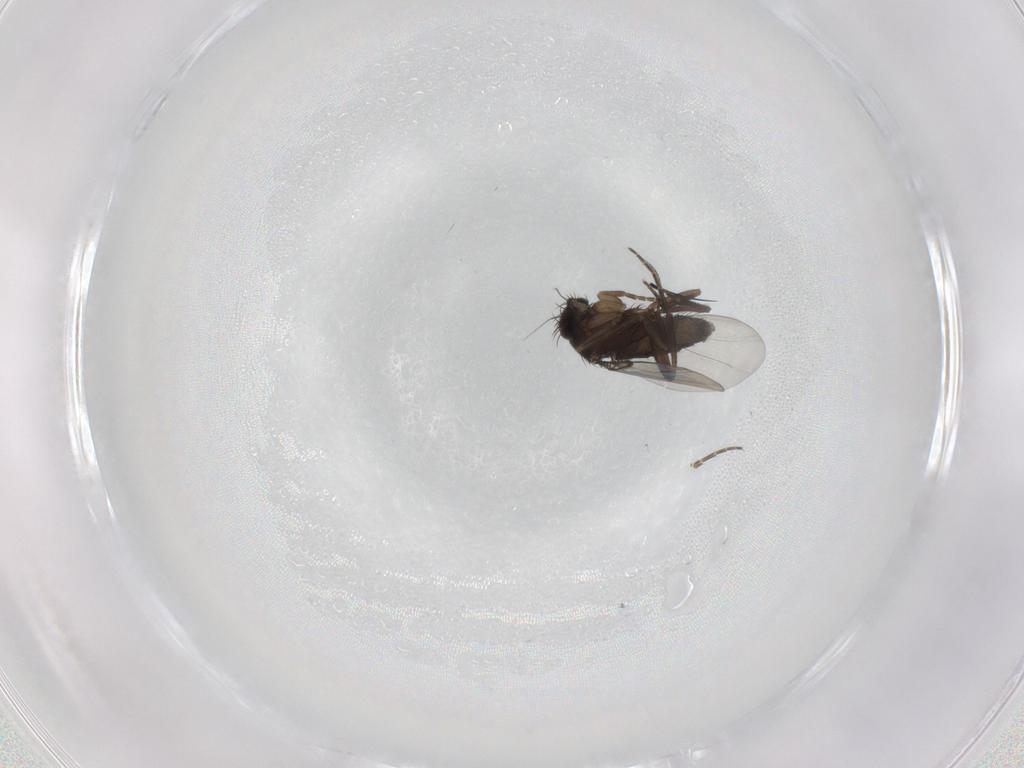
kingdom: Animalia
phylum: Arthropoda
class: Insecta
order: Diptera
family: Phoridae
